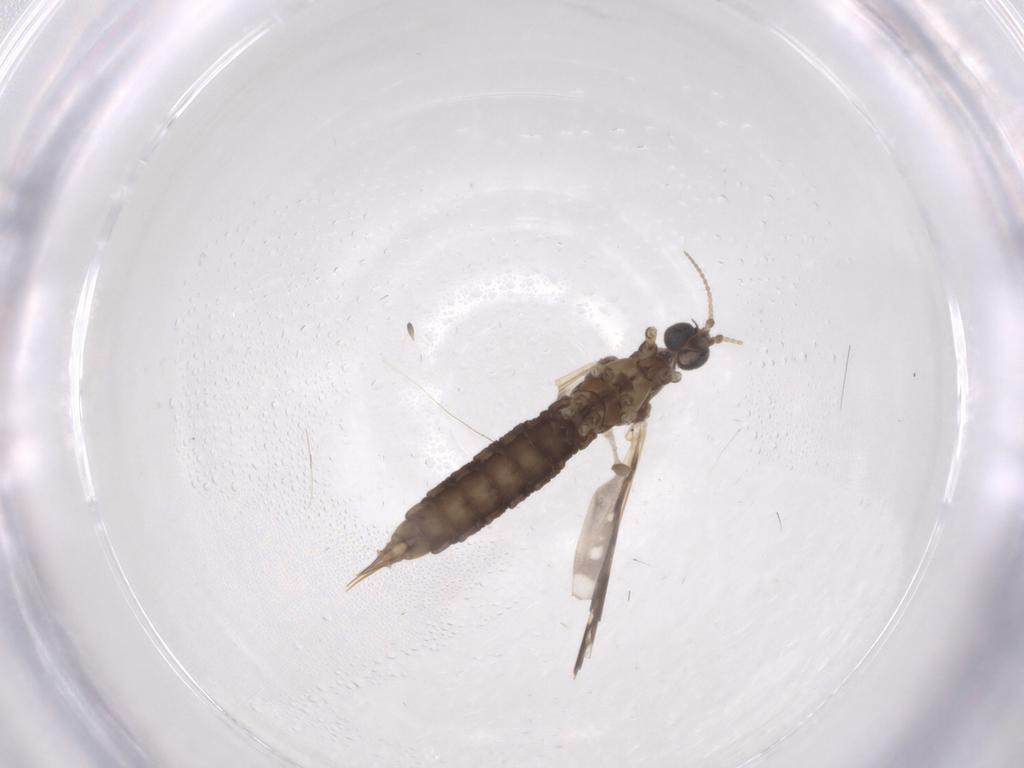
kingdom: Animalia
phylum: Arthropoda
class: Insecta
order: Diptera
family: Limoniidae
